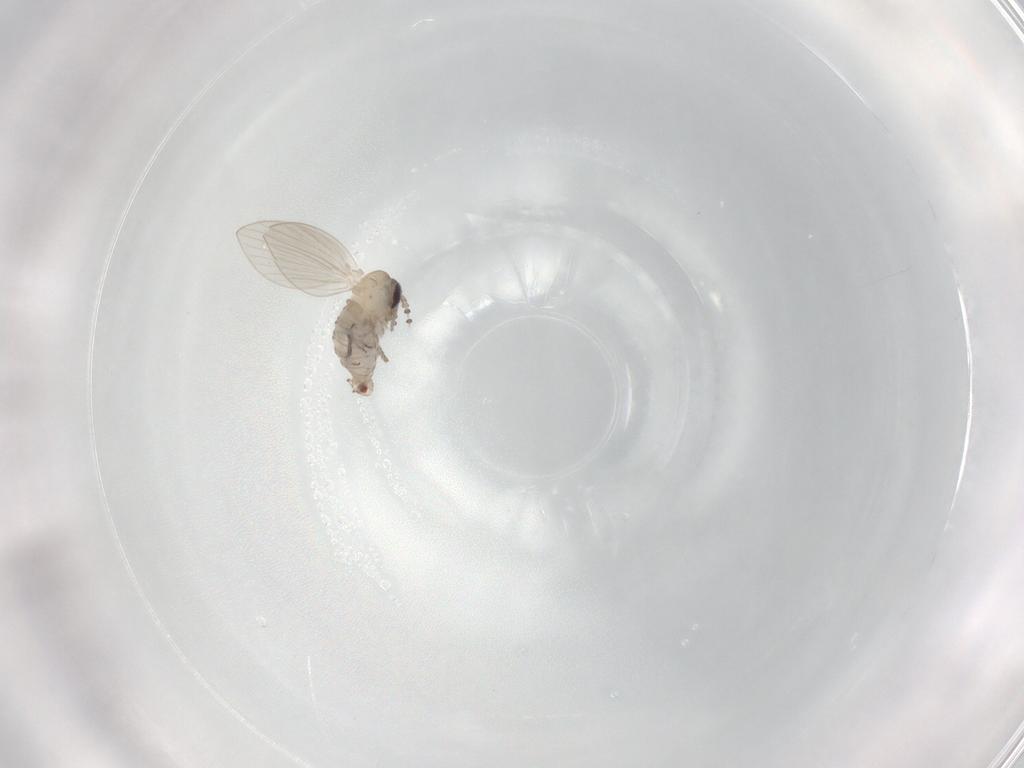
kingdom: Animalia
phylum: Arthropoda
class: Insecta
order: Diptera
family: Psychodidae
